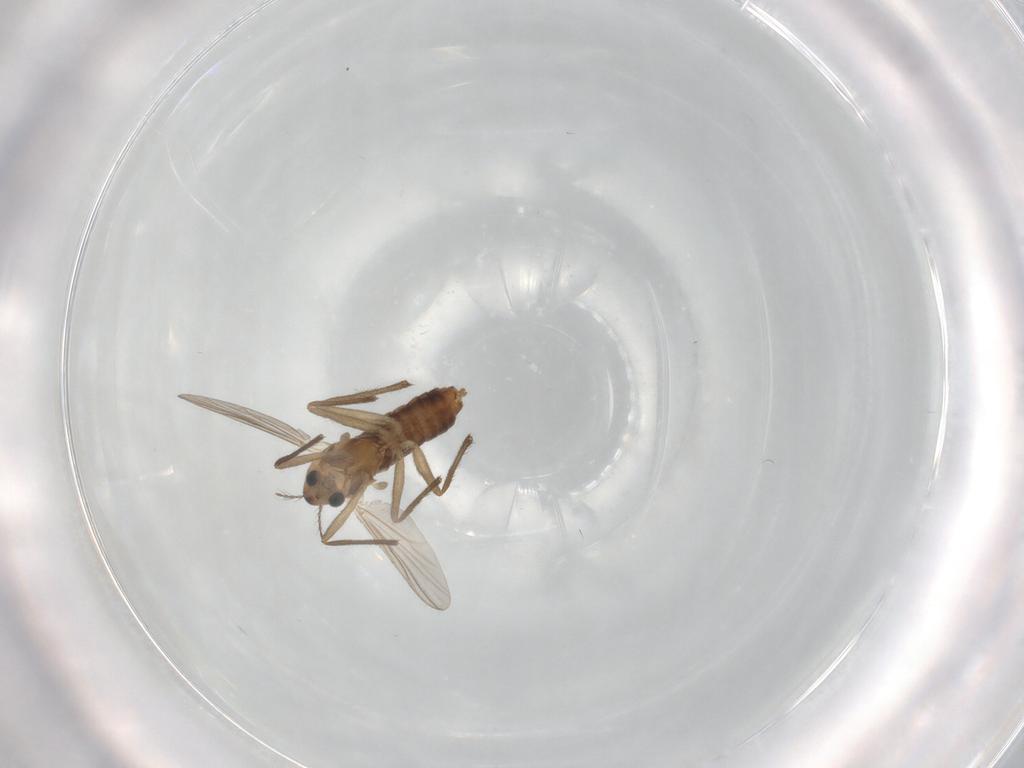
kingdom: Animalia
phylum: Arthropoda
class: Insecta
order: Diptera
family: Chironomidae
